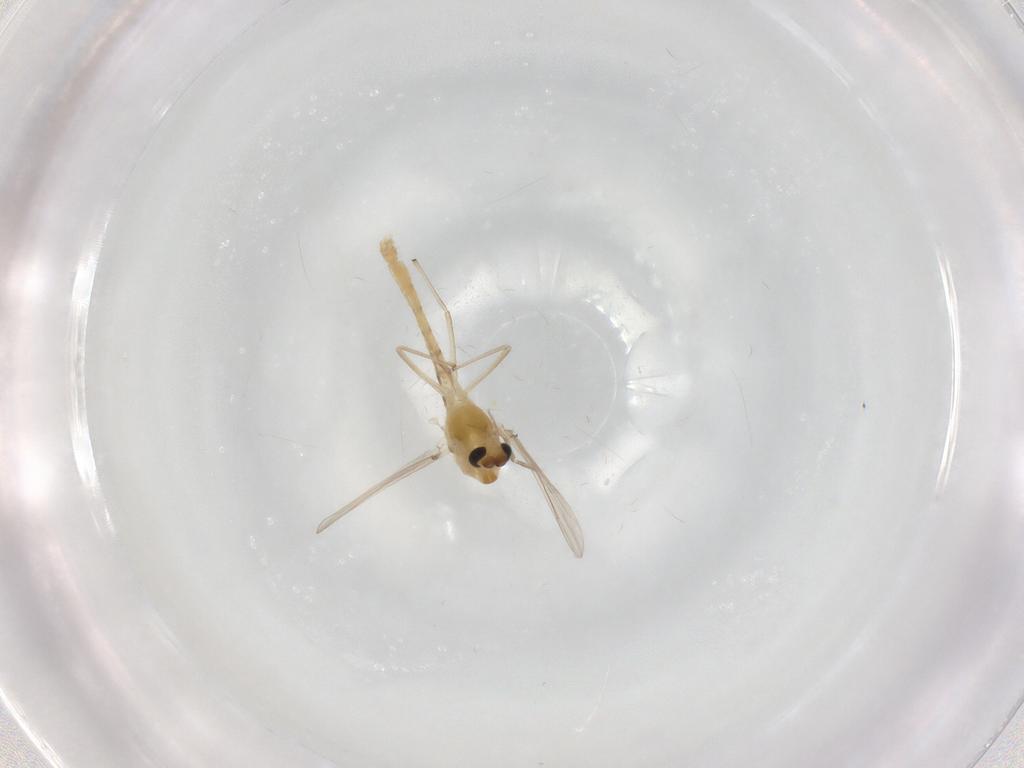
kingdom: Animalia
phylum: Arthropoda
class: Insecta
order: Diptera
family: Chironomidae
